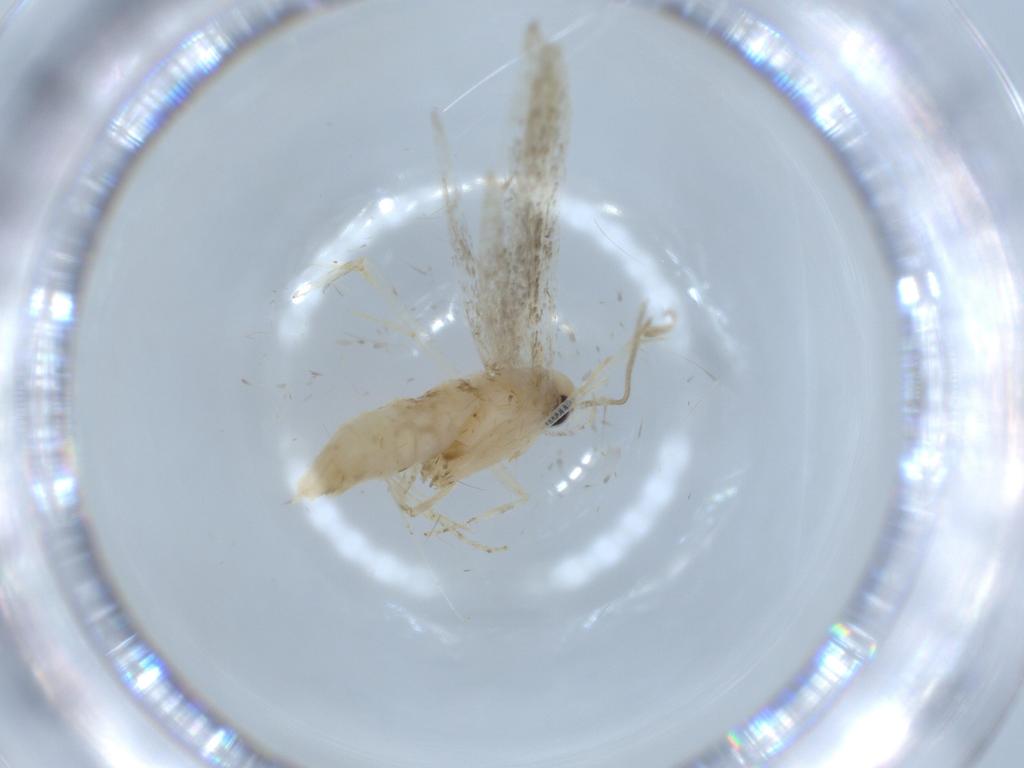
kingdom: Animalia
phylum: Arthropoda
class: Insecta
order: Lepidoptera
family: Cosmopterigidae
